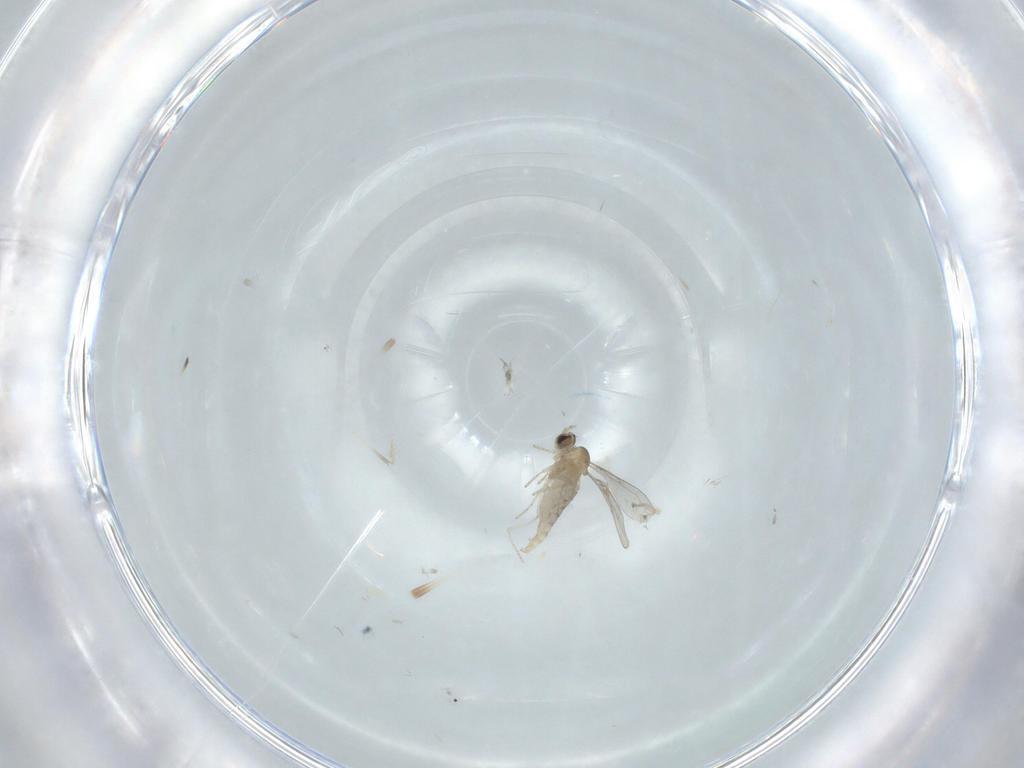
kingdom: Animalia
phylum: Arthropoda
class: Insecta
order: Diptera
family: Cecidomyiidae
